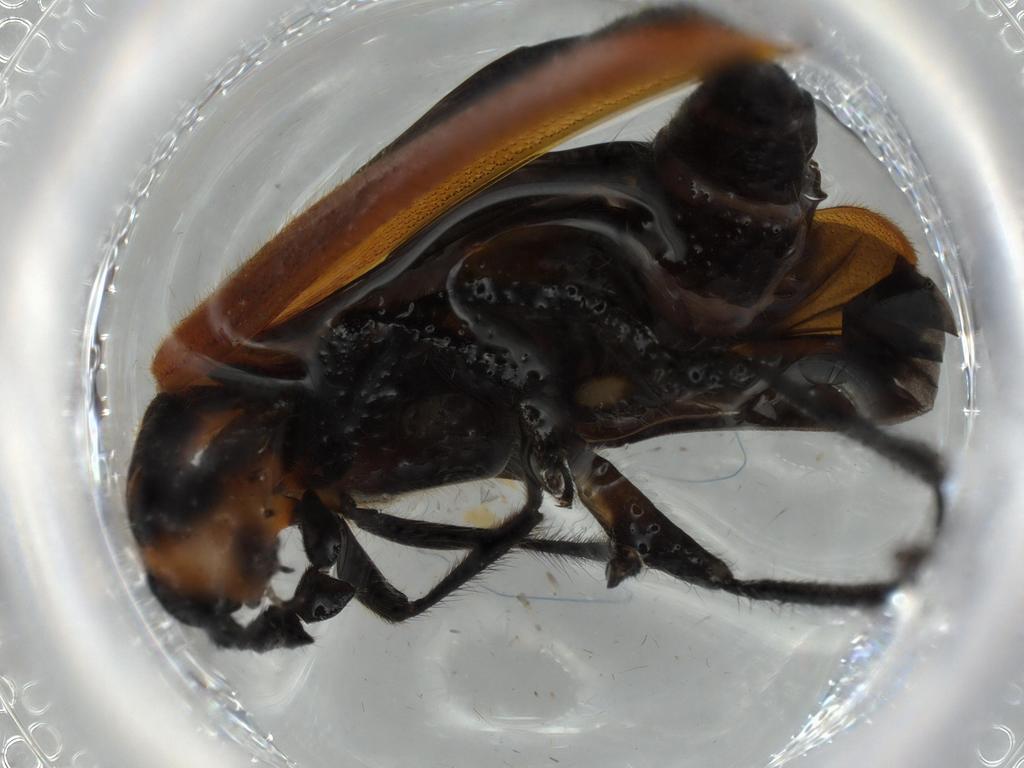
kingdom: Animalia
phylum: Arthropoda
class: Insecta
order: Coleoptera
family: Cleridae
